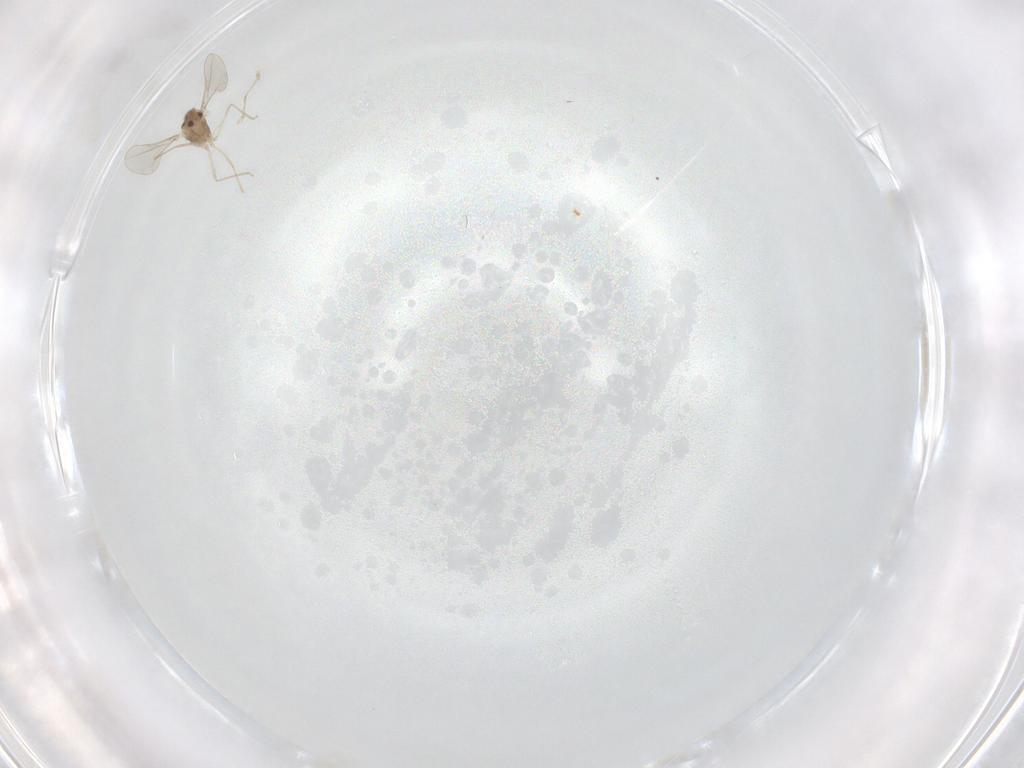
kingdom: Animalia
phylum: Arthropoda
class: Insecta
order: Diptera
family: Cecidomyiidae
